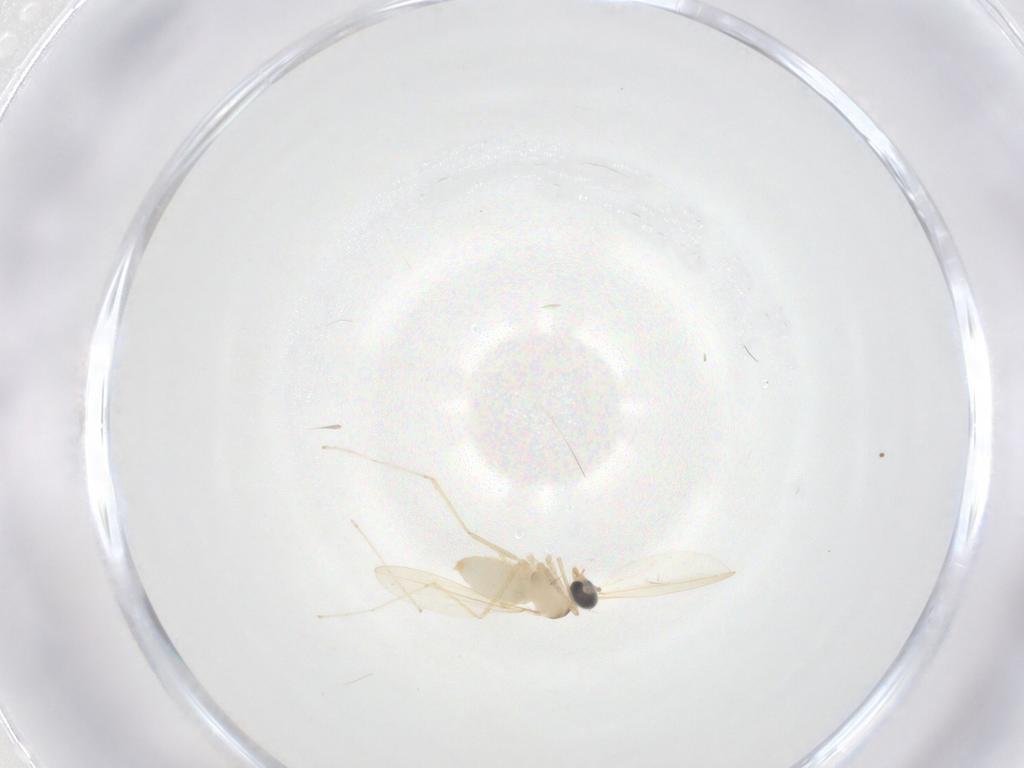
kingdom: Animalia
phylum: Arthropoda
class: Insecta
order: Diptera
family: Cecidomyiidae
